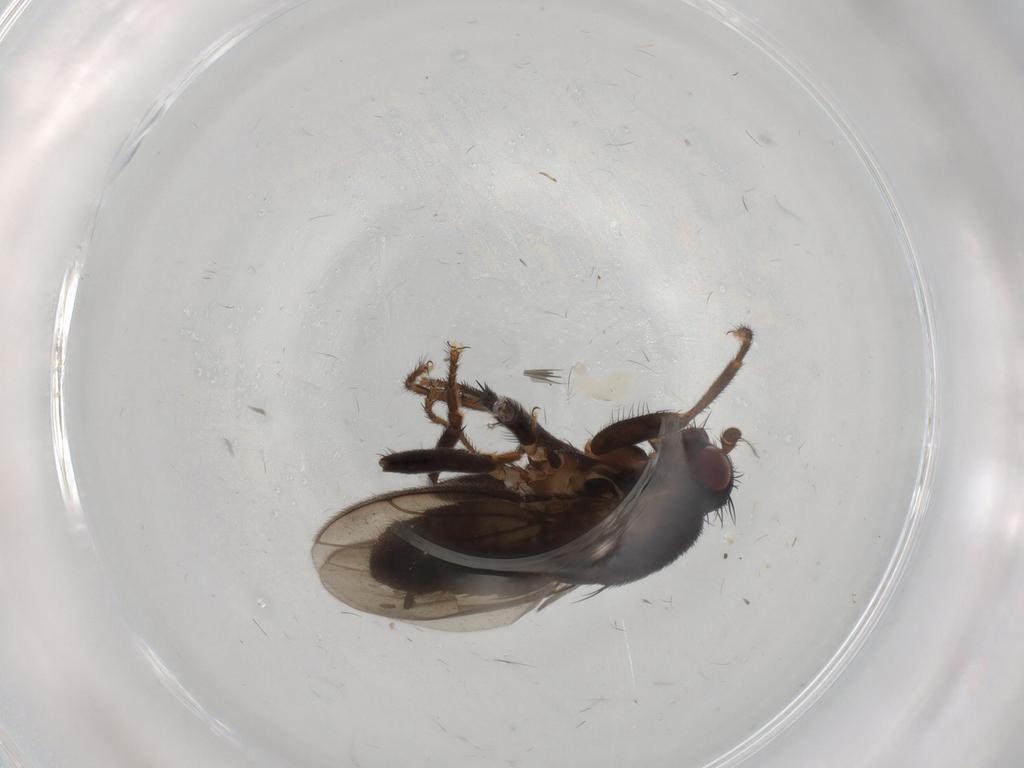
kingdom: Animalia
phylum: Arthropoda
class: Insecta
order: Diptera
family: Sphaeroceridae
